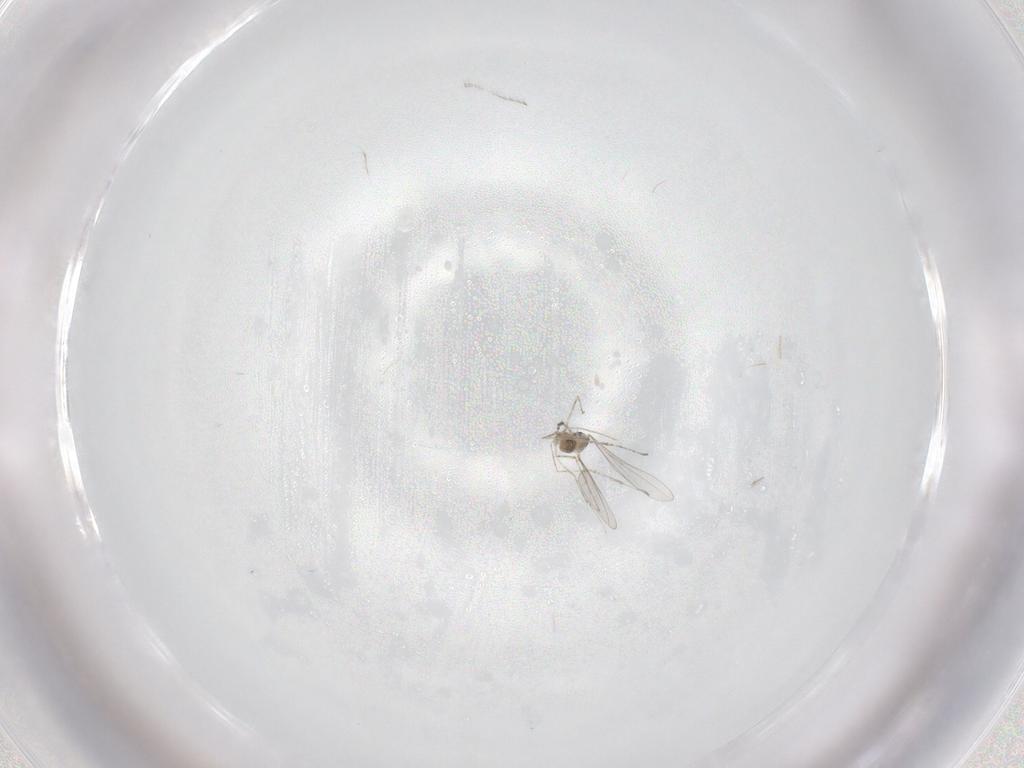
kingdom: Animalia
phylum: Arthropoda
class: Insecta
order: Diptera
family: Cecidomyiidae
